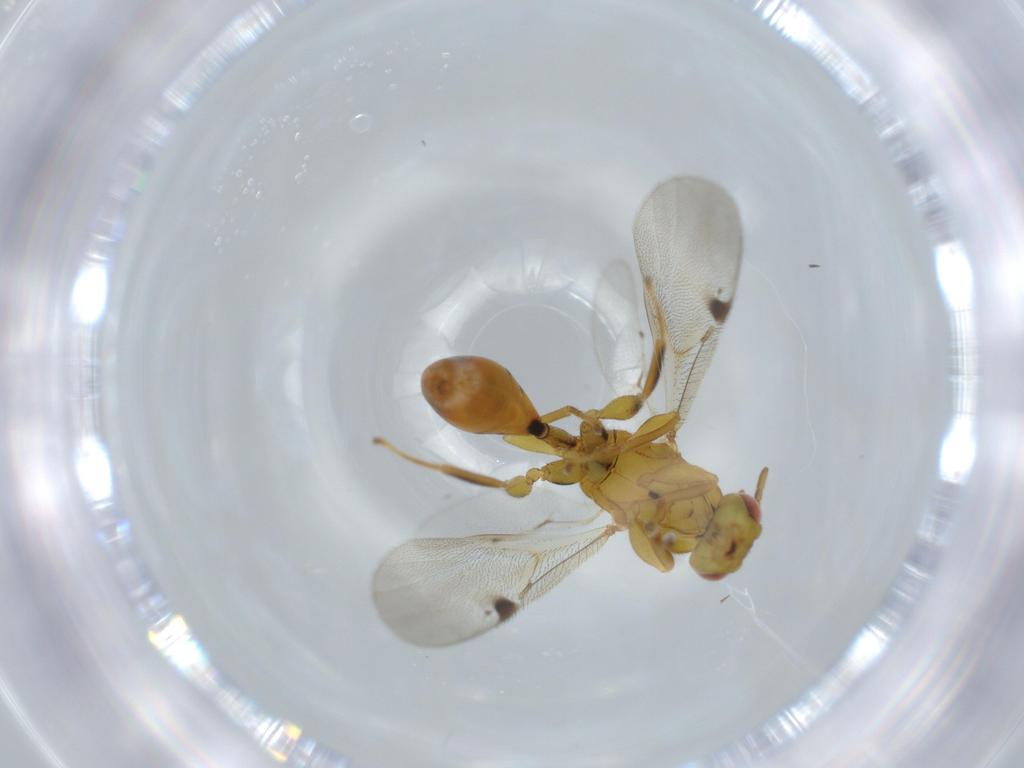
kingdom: Animalia
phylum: Arthropoda
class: Insecta
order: Hymenoptera
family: Eurytomidae
